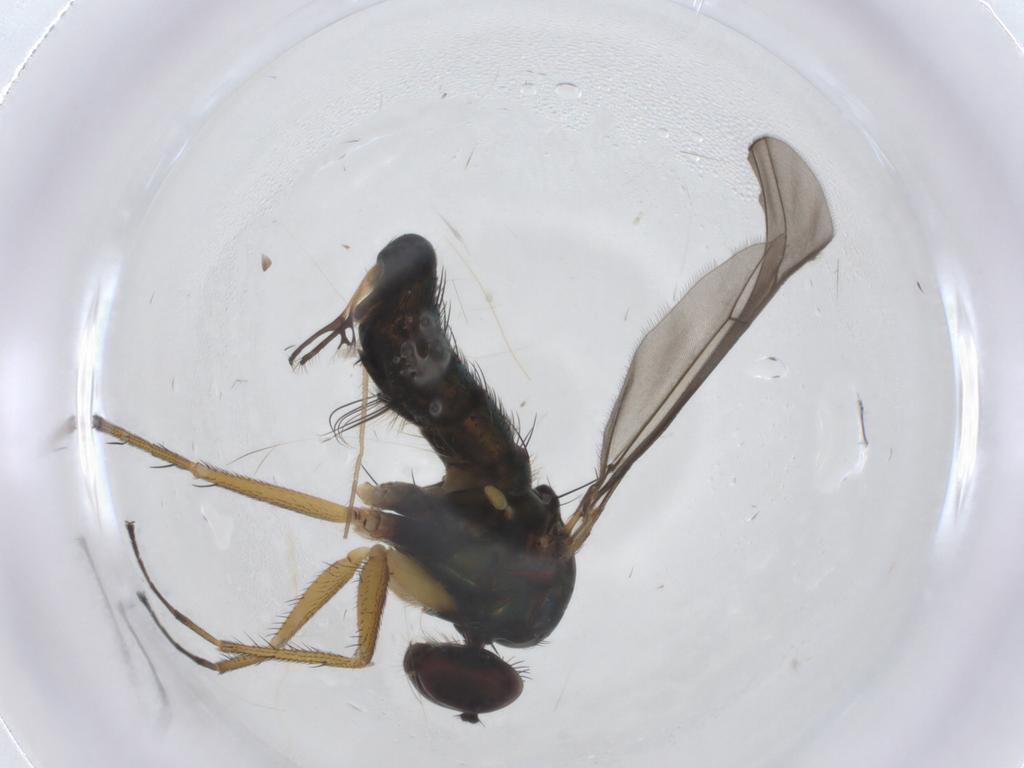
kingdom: Animalia
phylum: Arthropoda
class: Insecta
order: Diptera
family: Dolichopodidae
